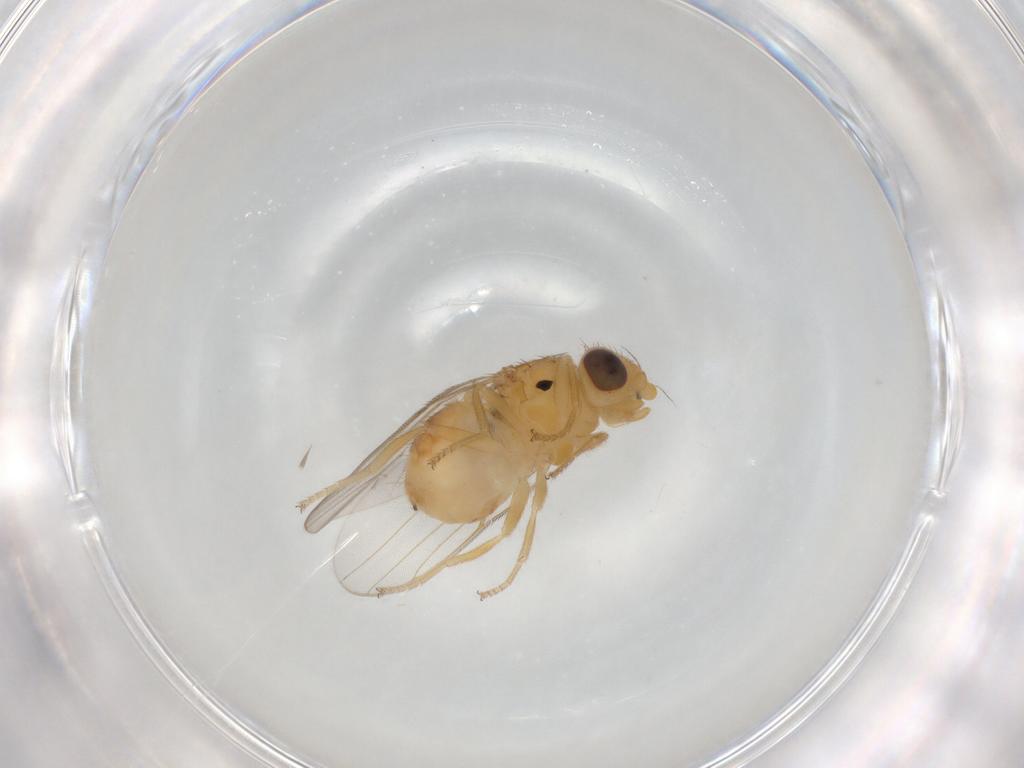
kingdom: Animalia
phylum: Arthropoda
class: Insecta
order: Diptera
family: Chloropidae
